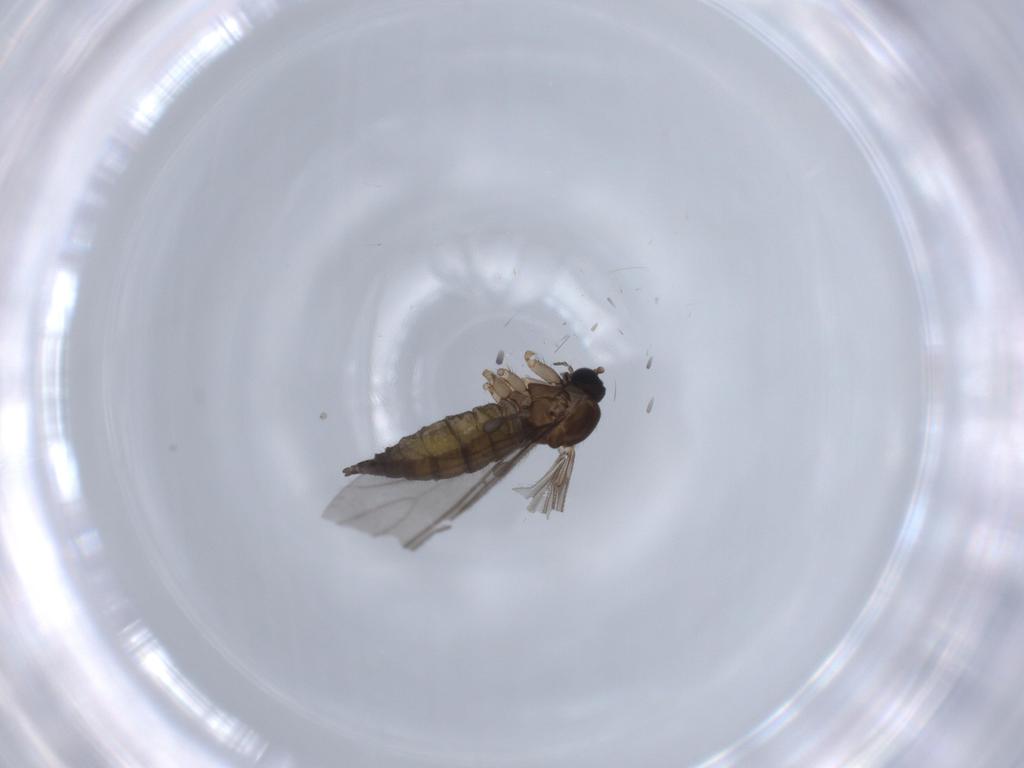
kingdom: Animalia
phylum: Arthropoda
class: Insecta
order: Diptera
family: Sciaridae
